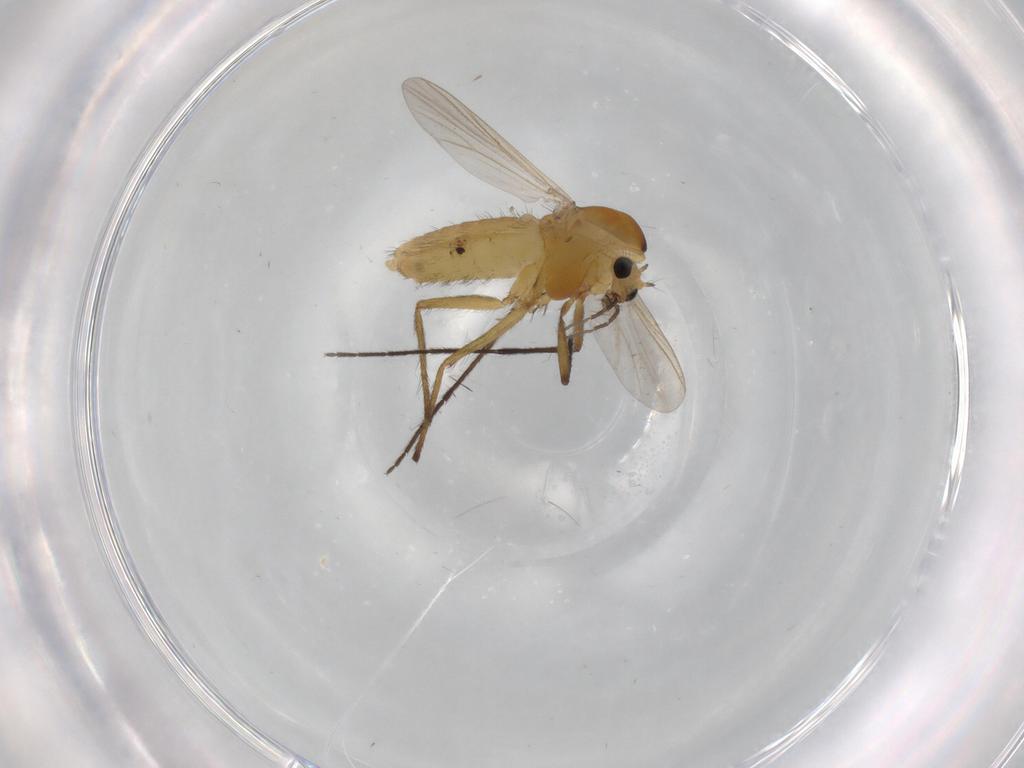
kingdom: Animalia
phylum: Arthropoda
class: Insecta
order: Diptera
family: Chironomidae
